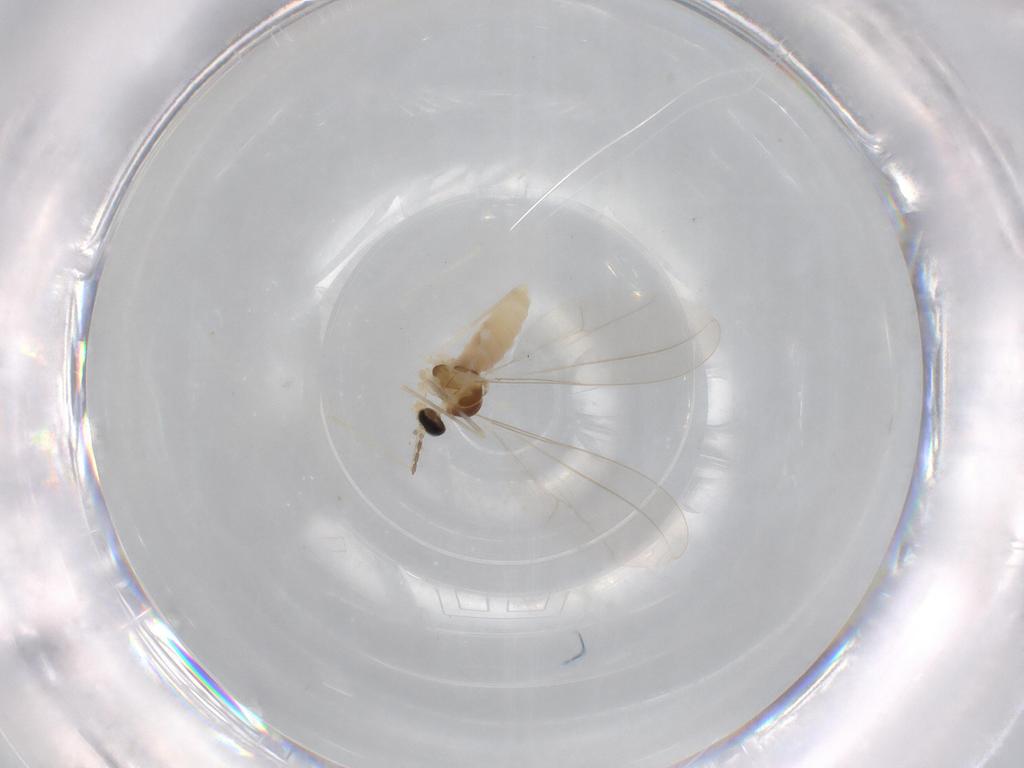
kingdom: Animalia
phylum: Arthropoda
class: Insecta
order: Diptera
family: Cecidomyiidae
